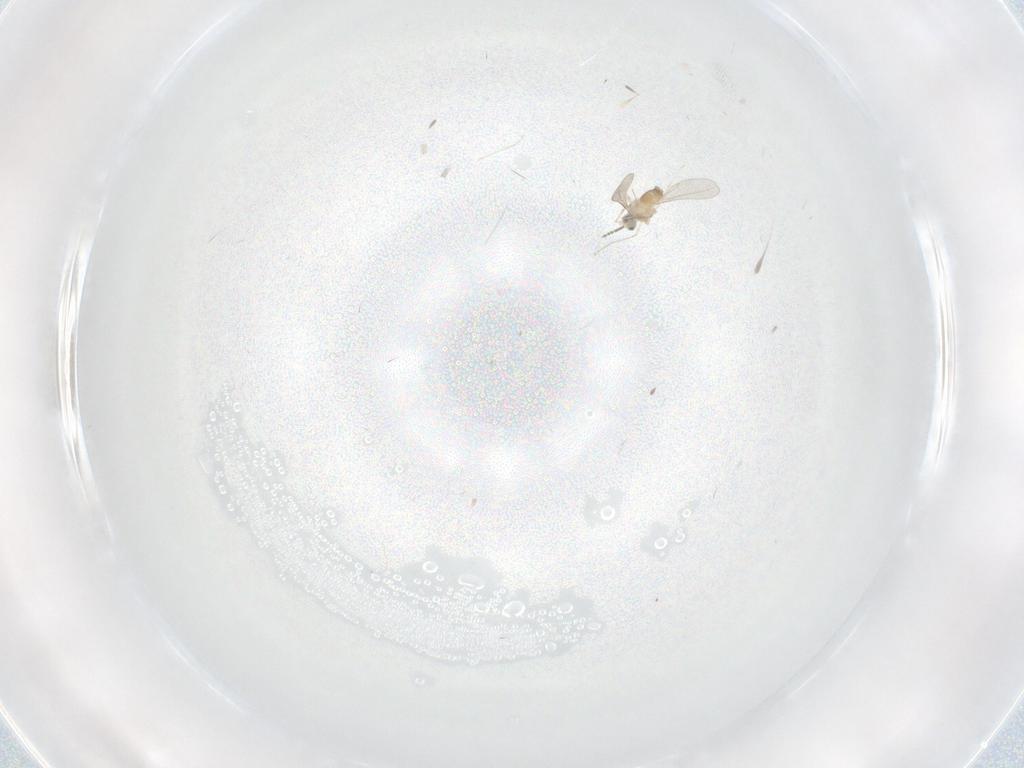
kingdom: Animalia
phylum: Arthropoda
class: Insecta
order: Diptera
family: Cecidomyiidae
